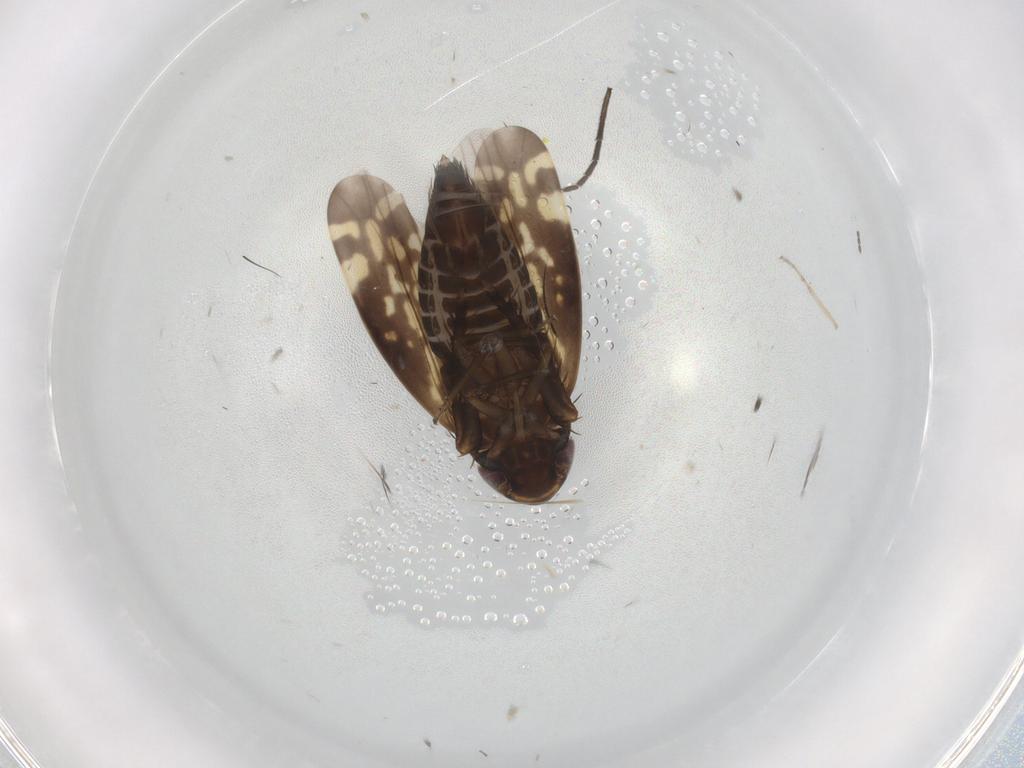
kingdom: Animalia
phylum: Arthropoda
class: Insecta
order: Hemiptera
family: Cicadellidae
